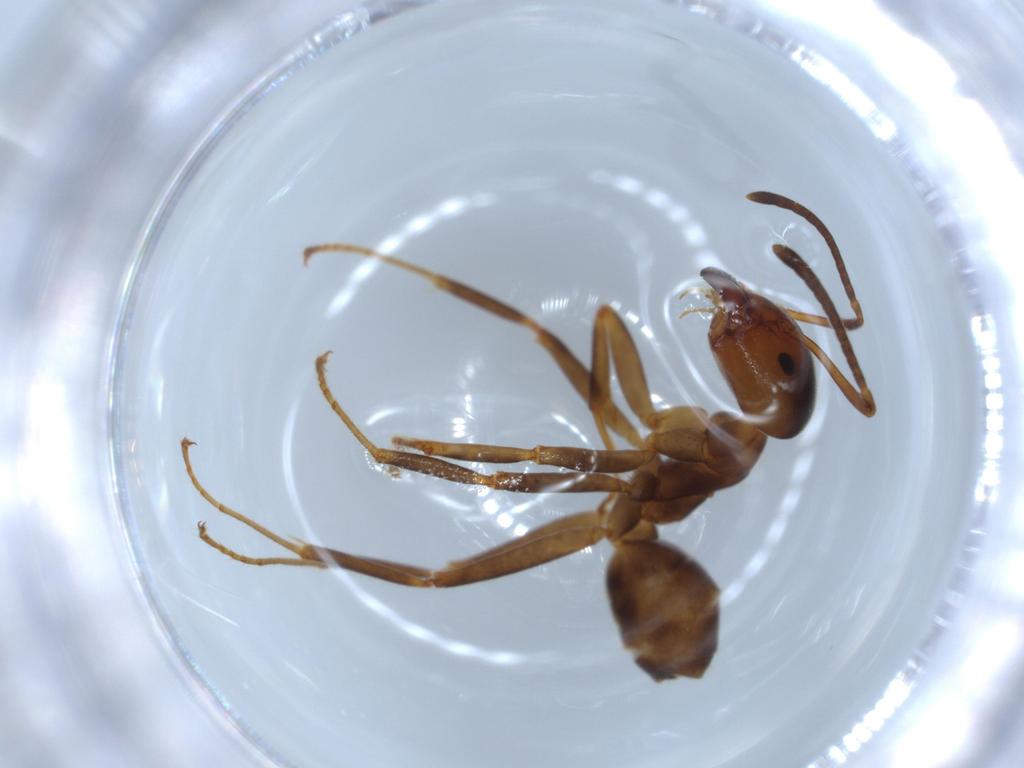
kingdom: Animalia
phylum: Arthropoda
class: Insecta
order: Hymenoptera
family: Formicidae
